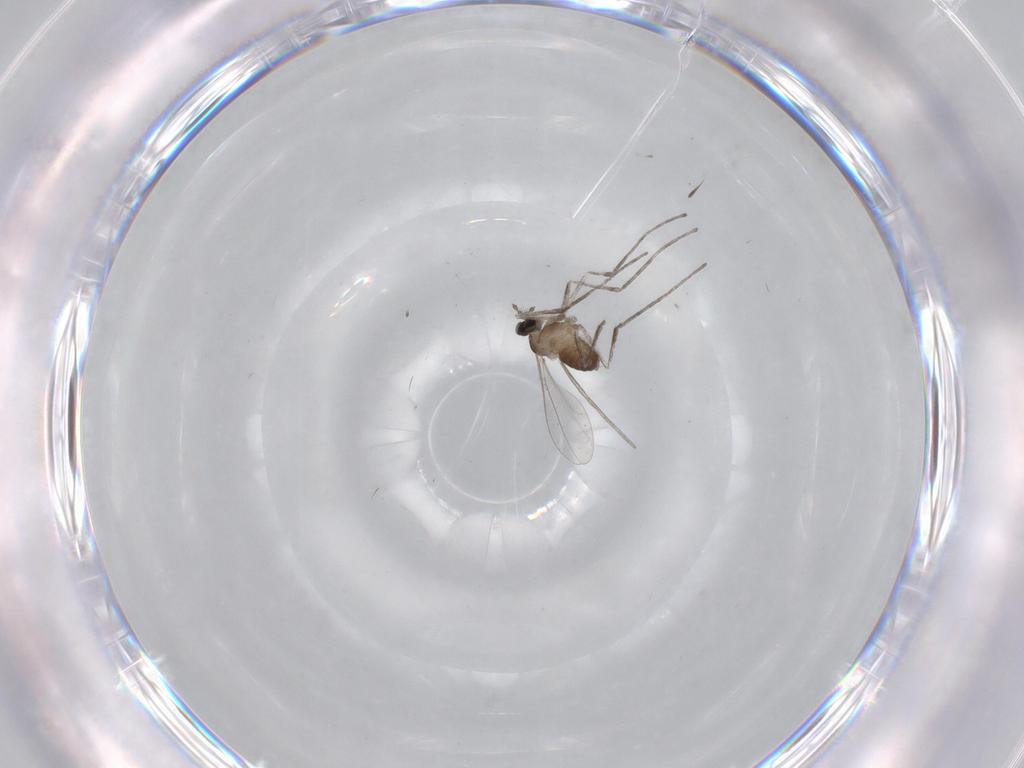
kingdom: Animalia
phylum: Arthropoda
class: Insecta
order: Diptera
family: Cecidomyiidae
